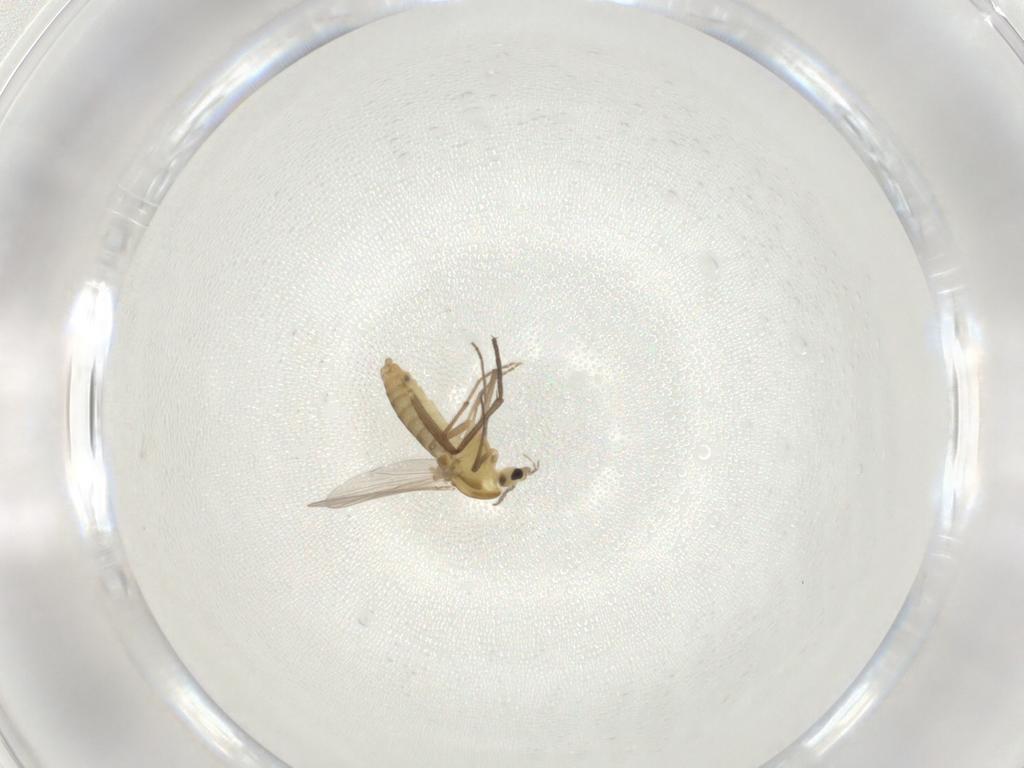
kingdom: Animalia
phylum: Arthropoda
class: Insecta
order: Diptera
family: Chironomidae
